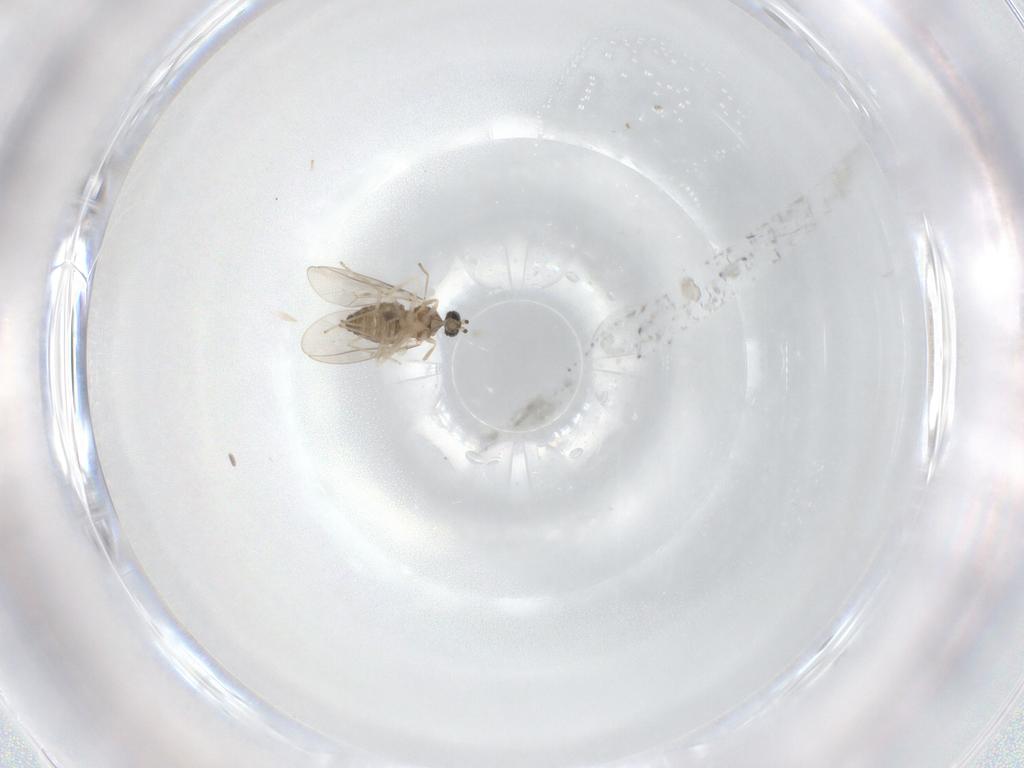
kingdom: Animalia
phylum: Arthropoda
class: Insecta
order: Diptera
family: Cecidomyiidae
